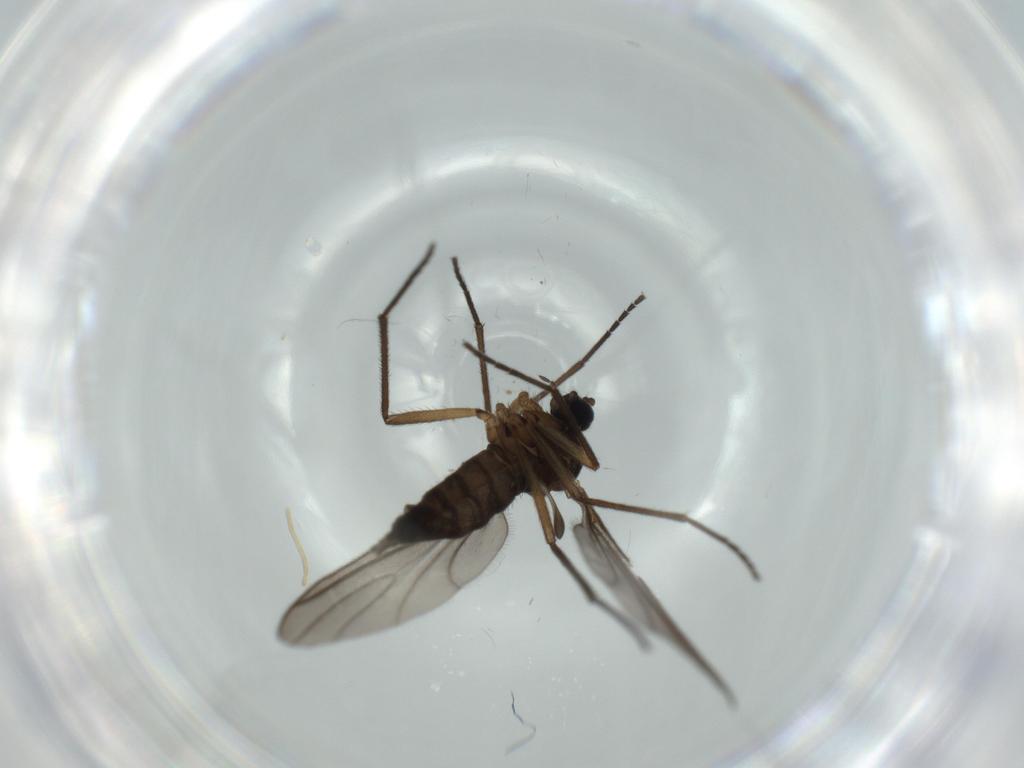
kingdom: Animalia
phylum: Arthropoda
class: Insecta
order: Diptera
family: Sciaridae
